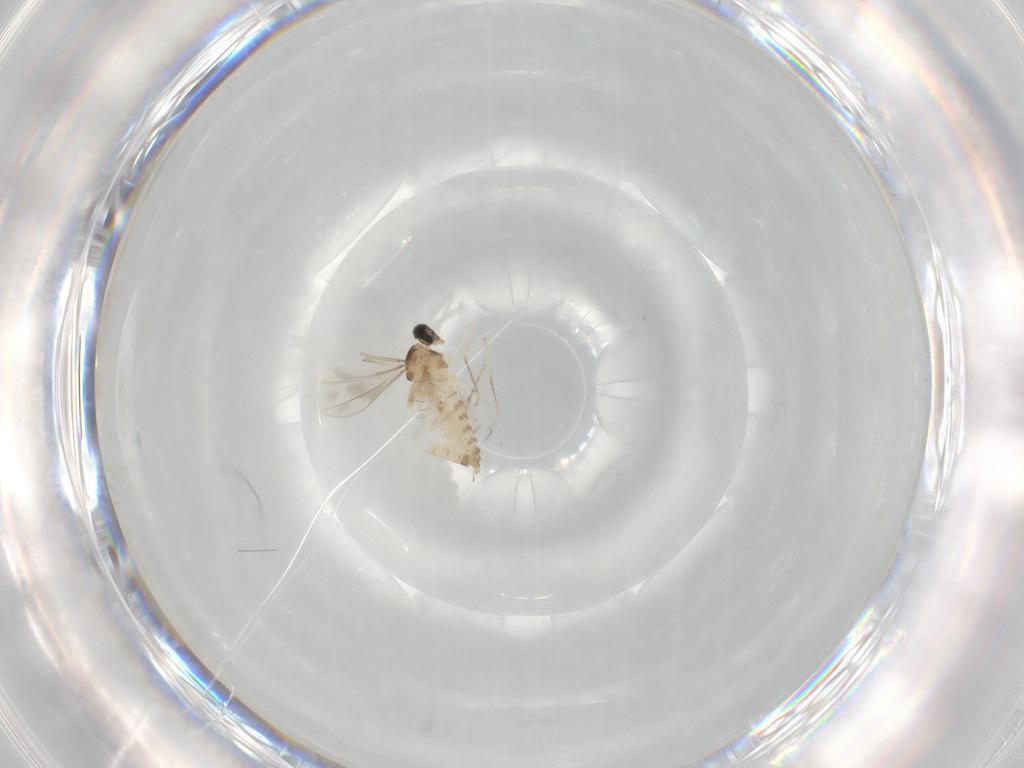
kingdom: Animalia
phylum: Arthropoda
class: Insecta
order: Diptera
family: Cecidomyiidae
